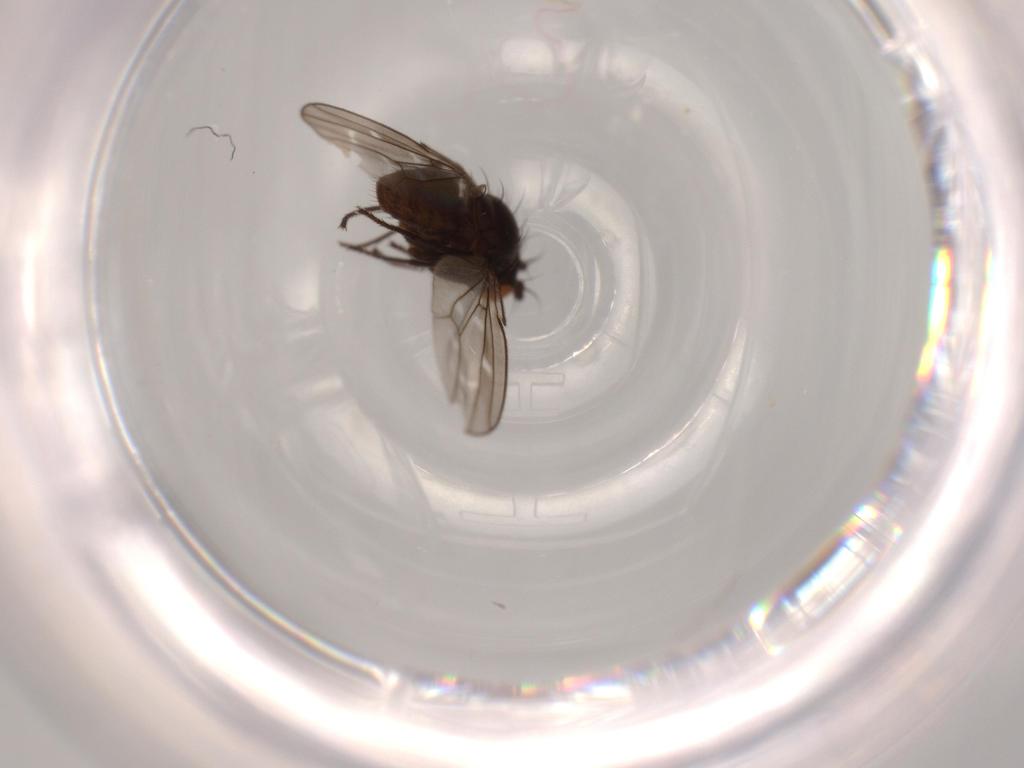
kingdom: Animalia
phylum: Arthropoda
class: Insecta
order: Diptera
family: Ephydridae
